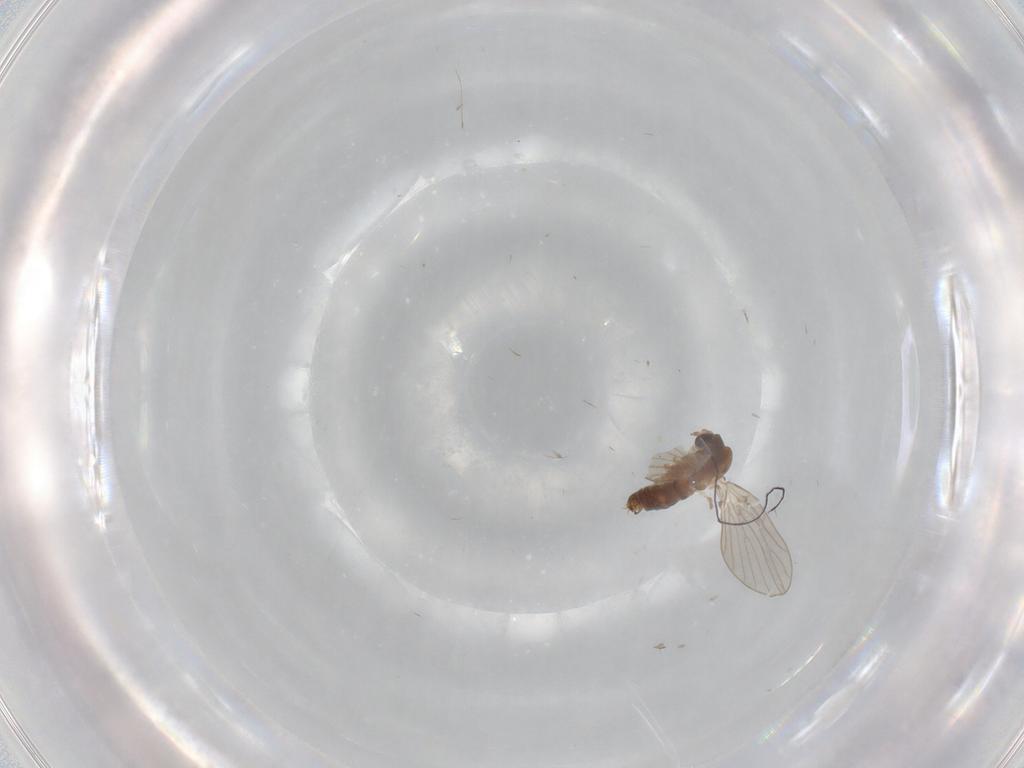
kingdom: Animalia
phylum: Arthropoda
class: Insecta
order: Diptera
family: Cecidomyiidae
